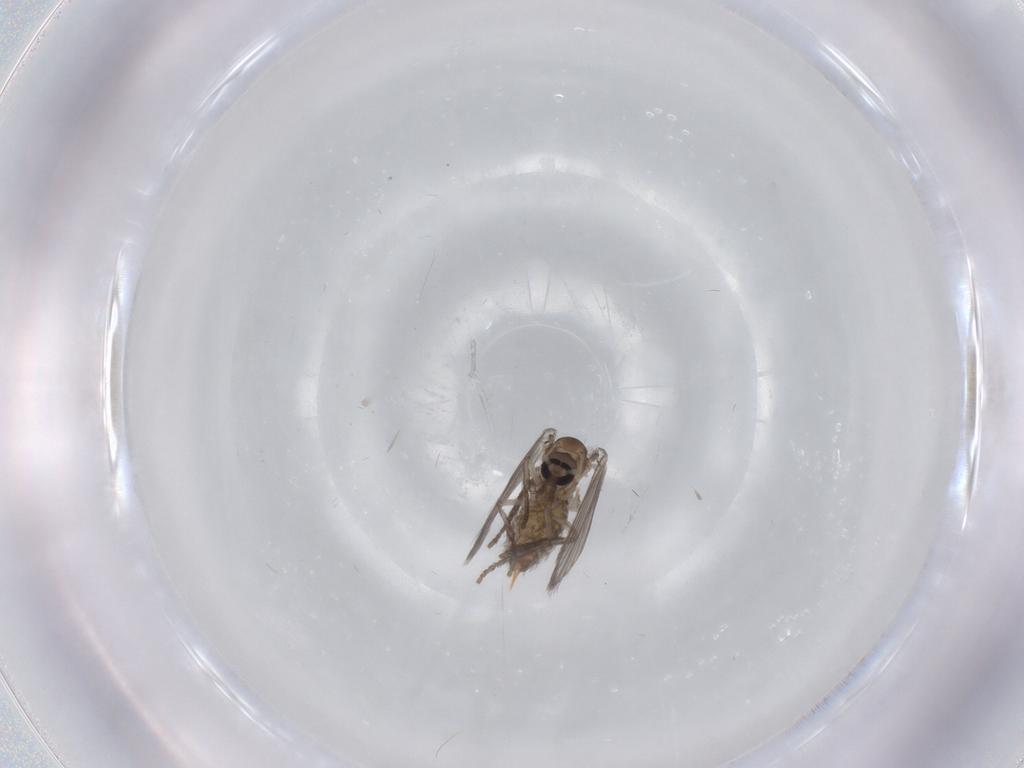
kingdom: Animalia
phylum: Arthropoda
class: Insecta
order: Diptera
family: Psychodidae
